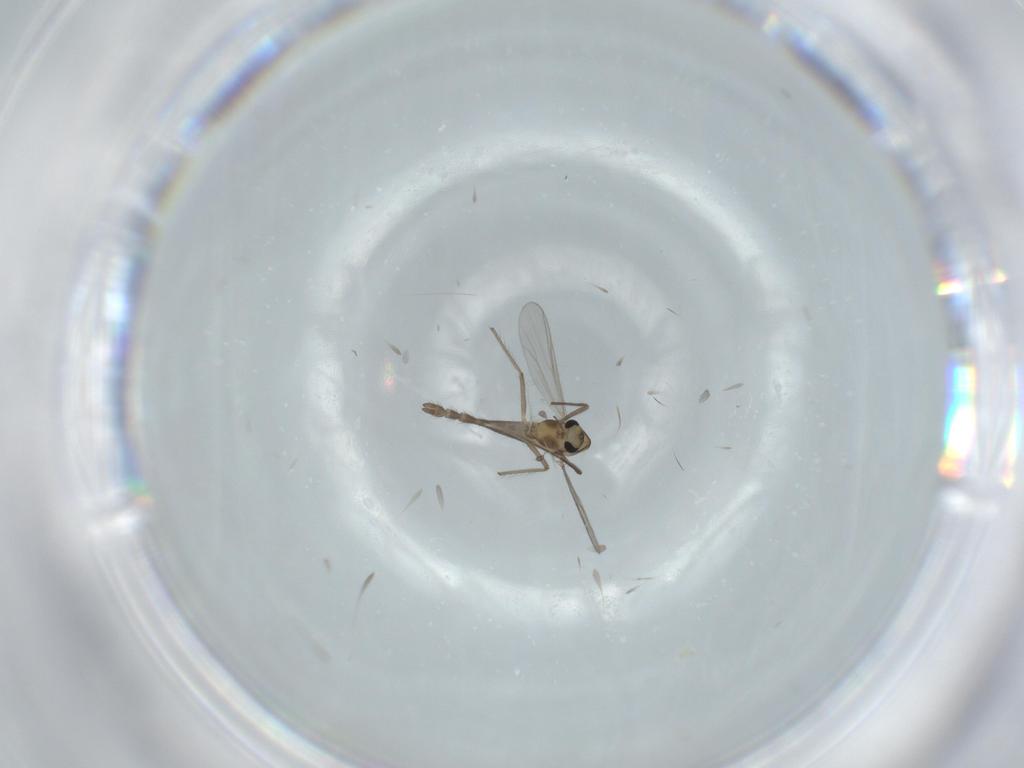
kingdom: Animalia
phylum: Arthropoda
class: Insecta
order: Diptera
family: Chironomidae
